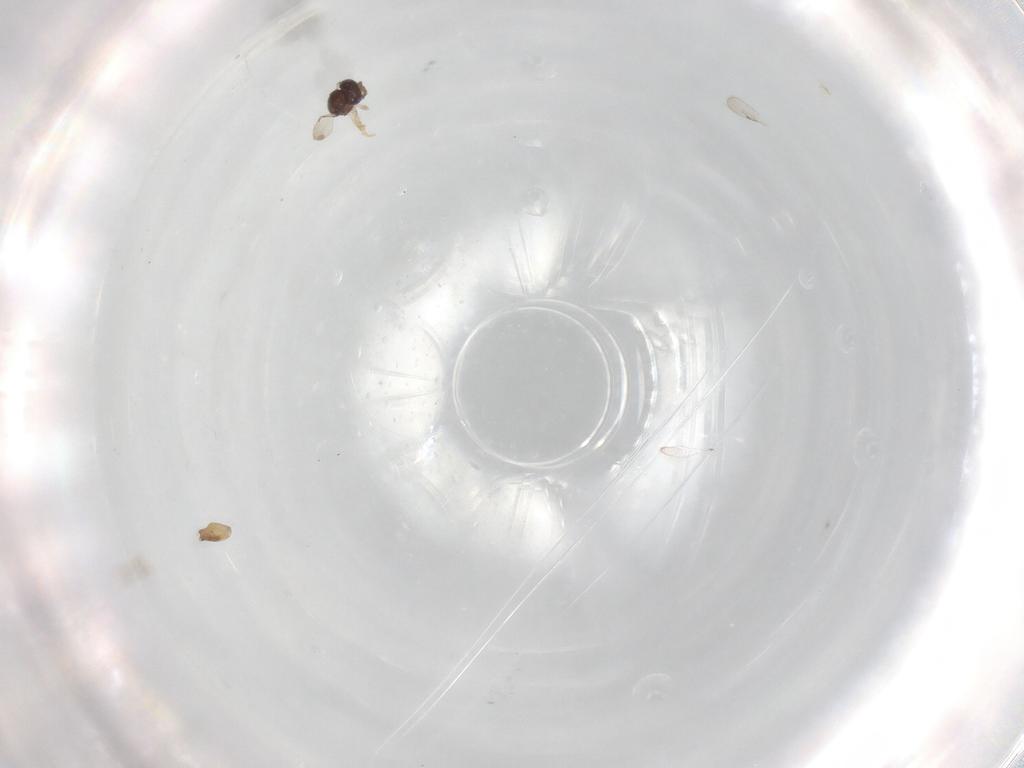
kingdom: Animalia
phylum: Arthropoda
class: Insecta
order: Hymenoptera
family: Ceraphronidae
